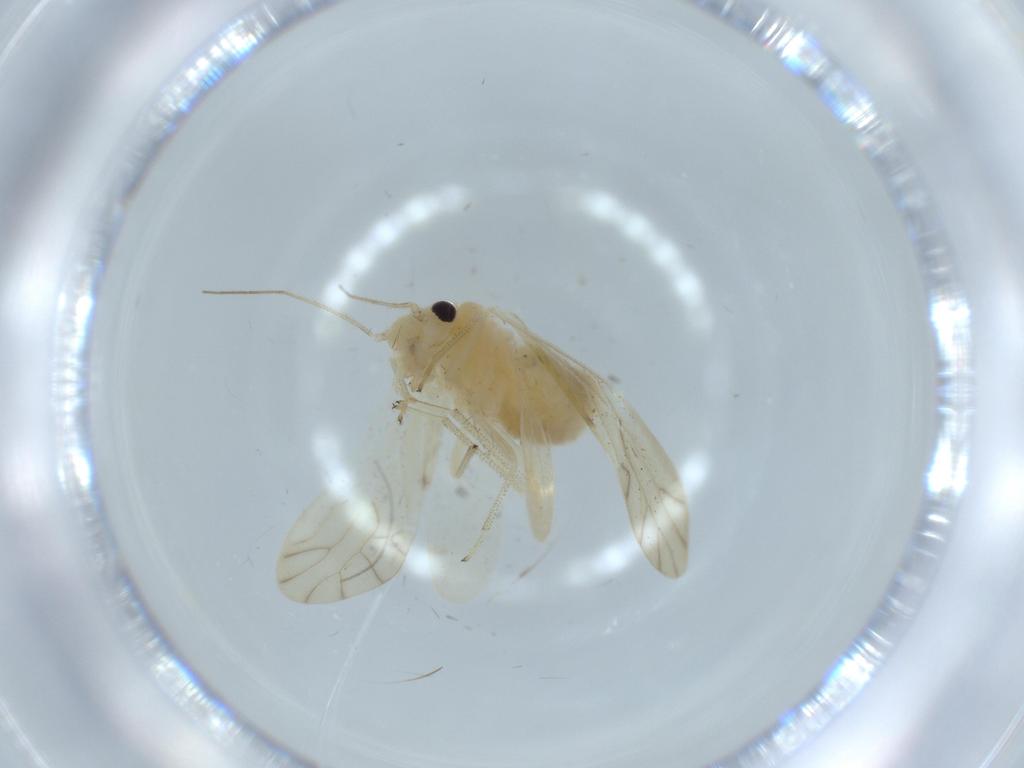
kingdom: Animalia
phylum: Arthropoda
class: Insecta
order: Psocodea
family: Caeciliusidae
